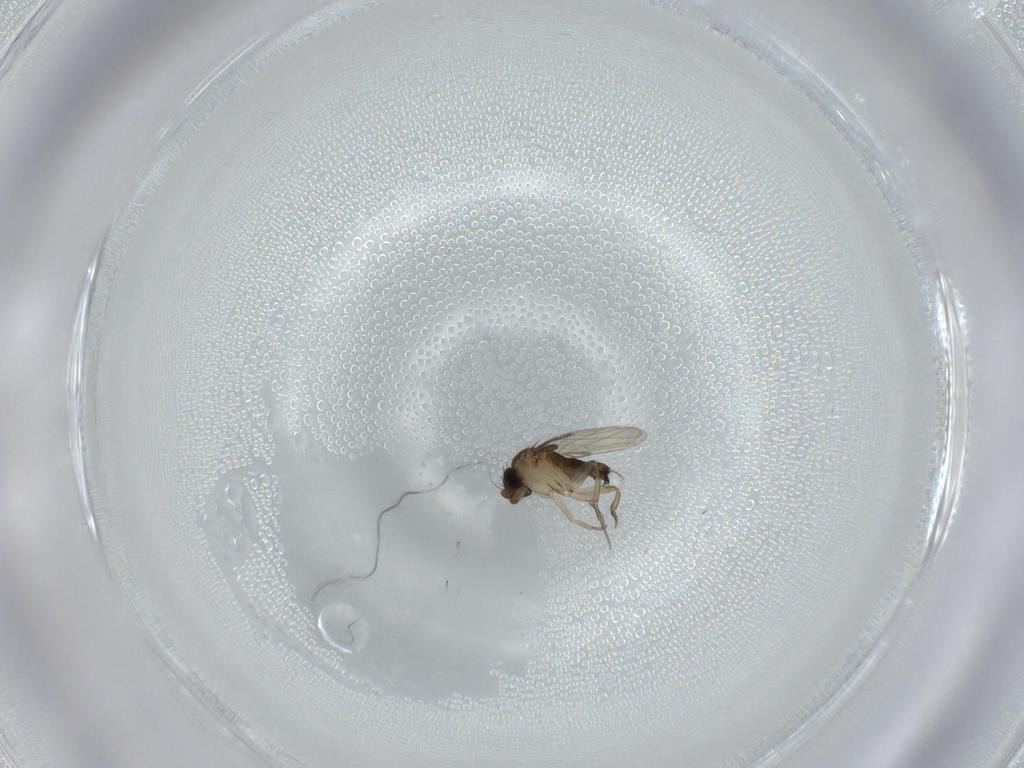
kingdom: Animalia
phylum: Arthropoda
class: Insecta
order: Diptera
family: Phoridae
